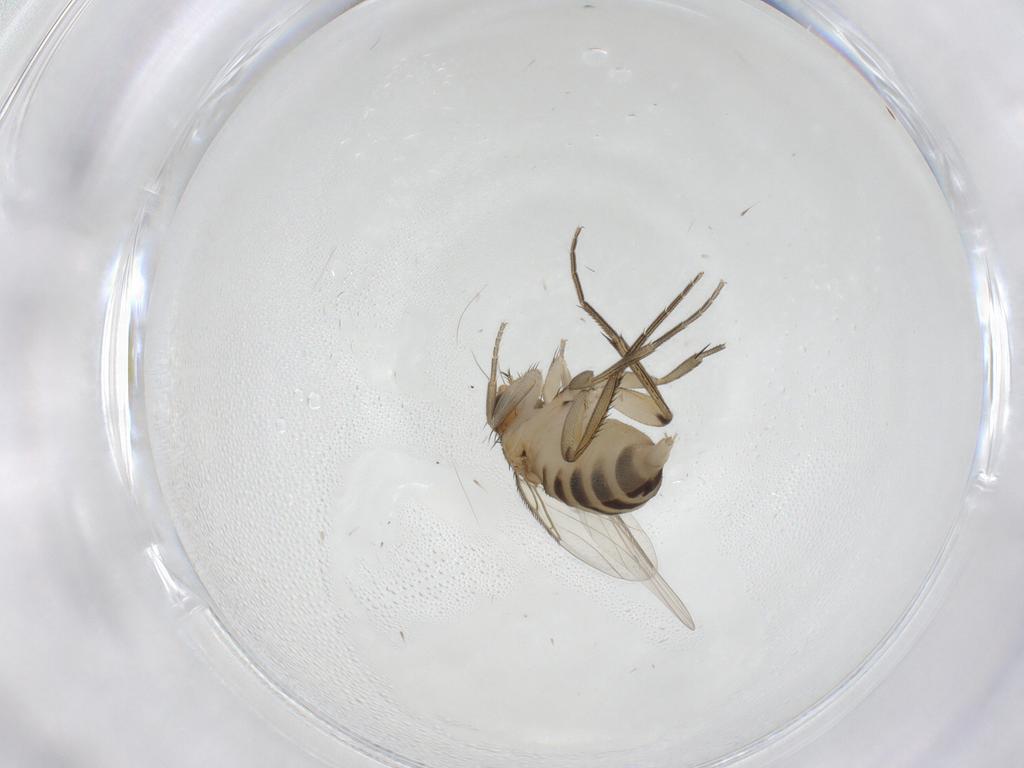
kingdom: Animalia
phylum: Arthropoda
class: Insecta
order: Diptera
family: Phoridae
